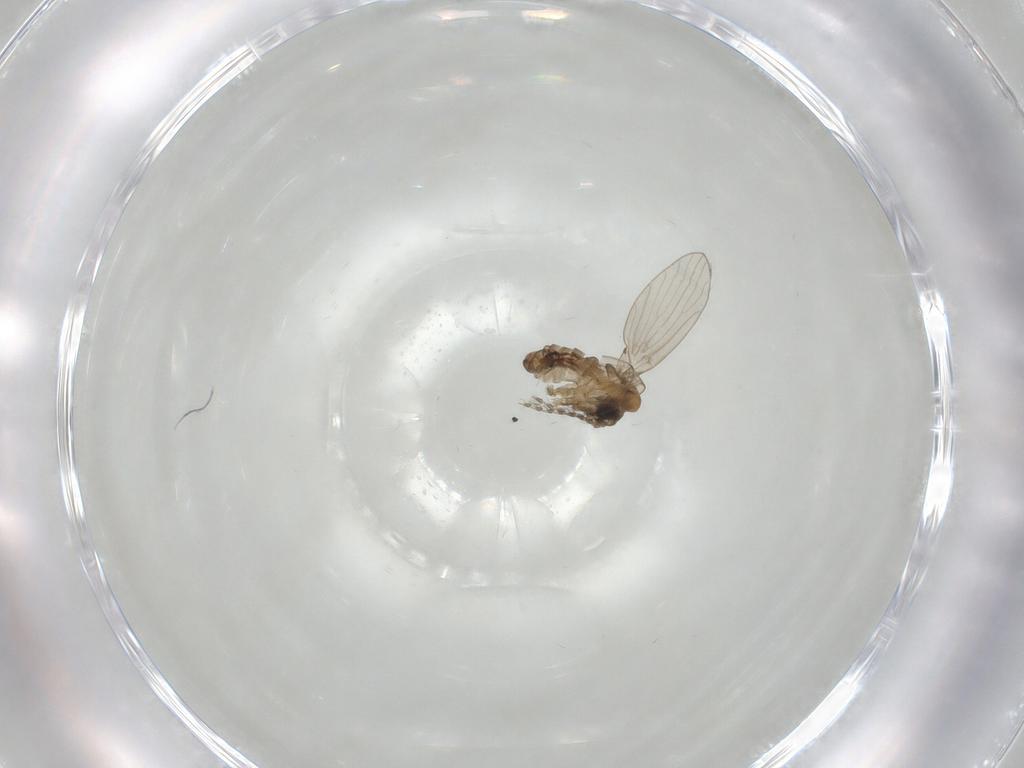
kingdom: Animalia
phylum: Arthropoda
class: Insecta
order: Diptera
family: Psychodidae
